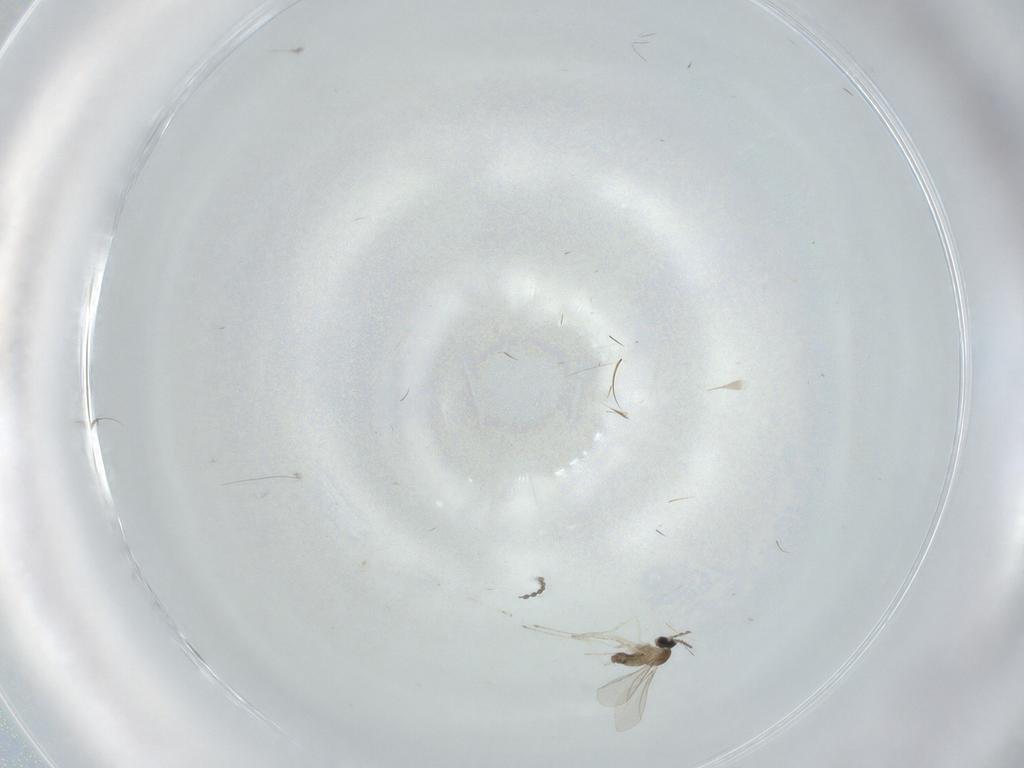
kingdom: Animalia
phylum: Arthropoda
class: Insecta
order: Diptera
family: Cecidomyiidae
